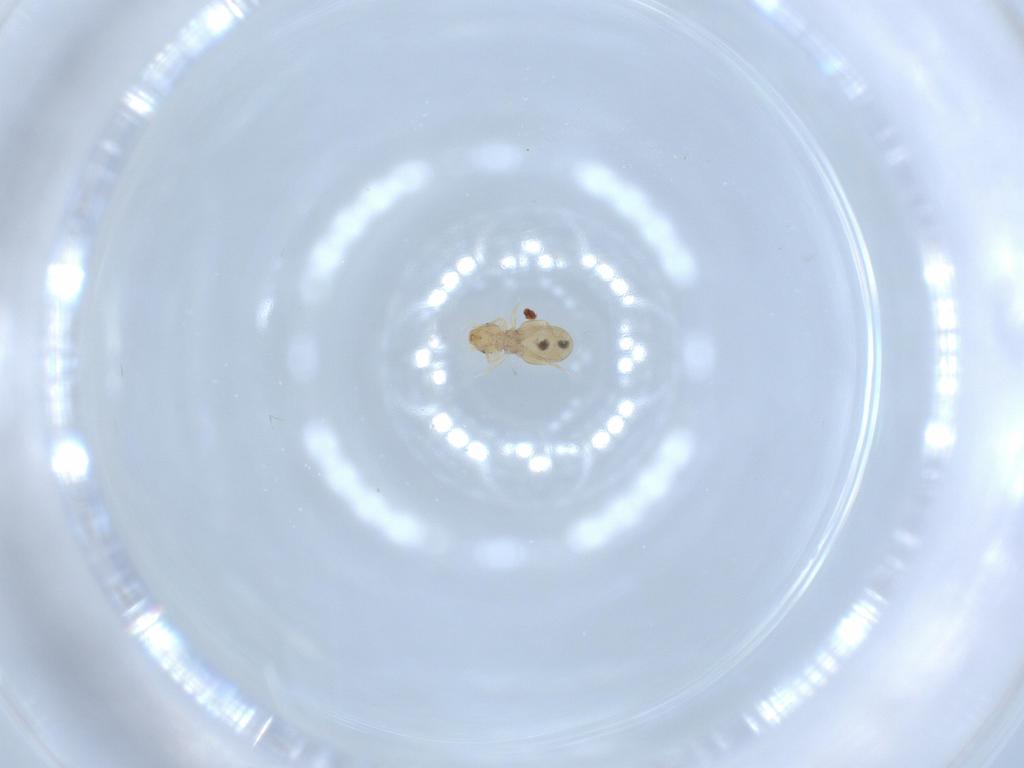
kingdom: Animalia
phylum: Arthropoda
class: Insecta
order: Psocodea
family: Liposcelididae
